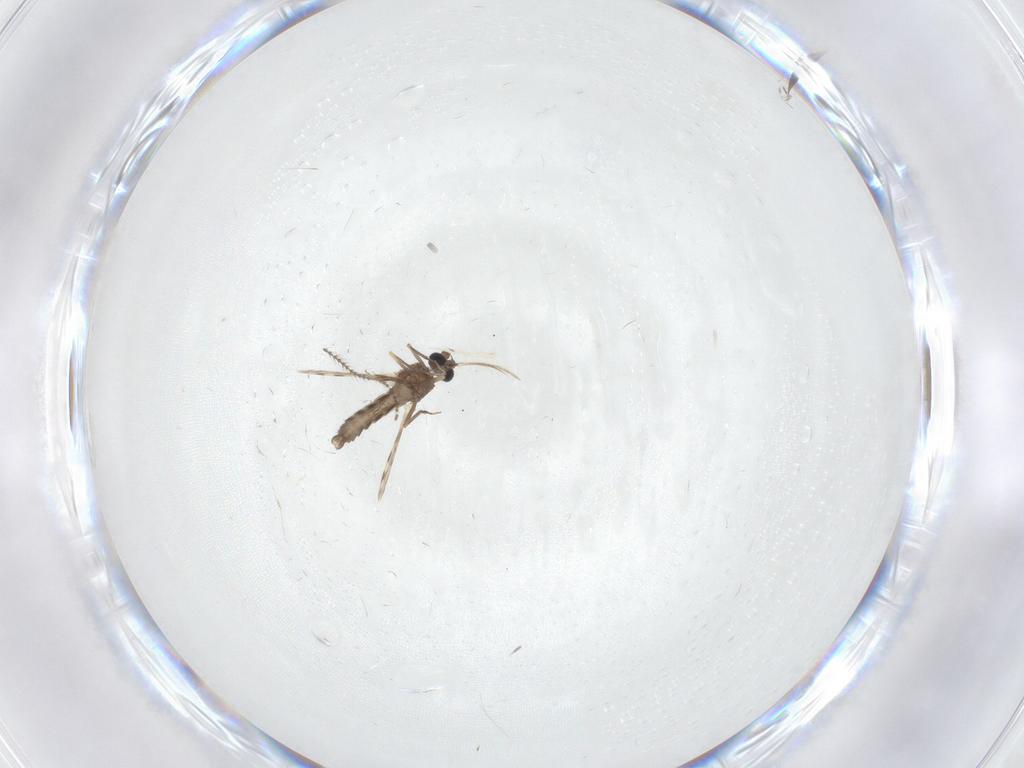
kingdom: Animalia
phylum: Arthropoda
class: Insecta
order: Diptera
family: Ceratopogonidae
